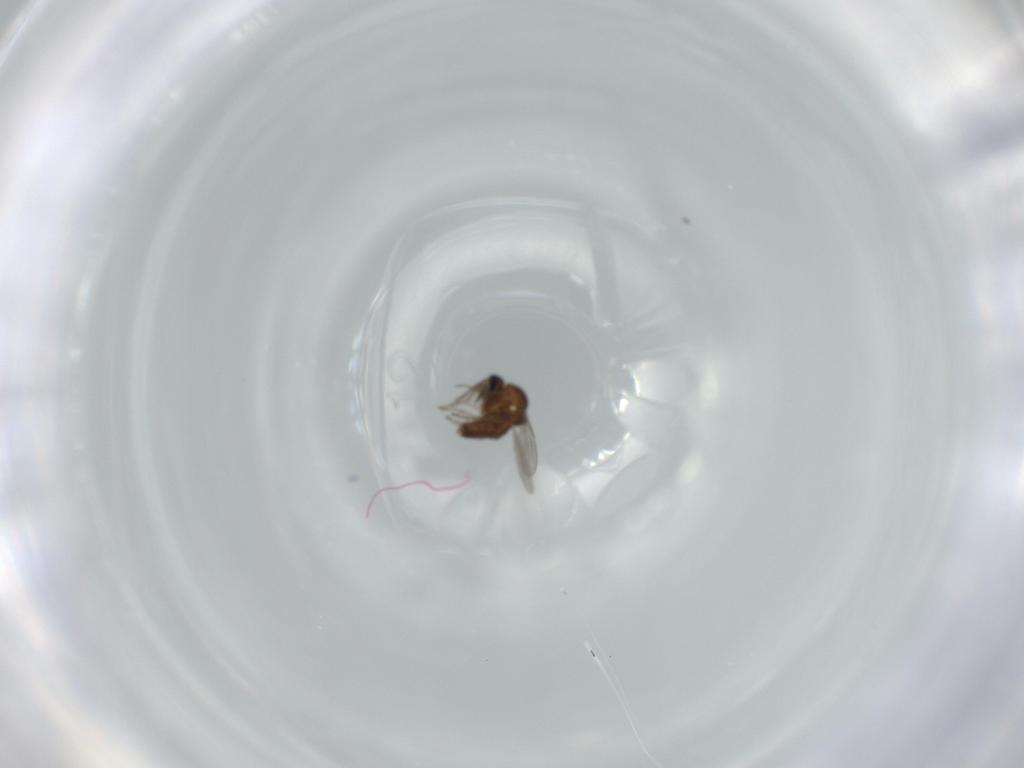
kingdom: Animalia
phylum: Arthropoda
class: Insecta
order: Diptera
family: Ceratopogonidae
